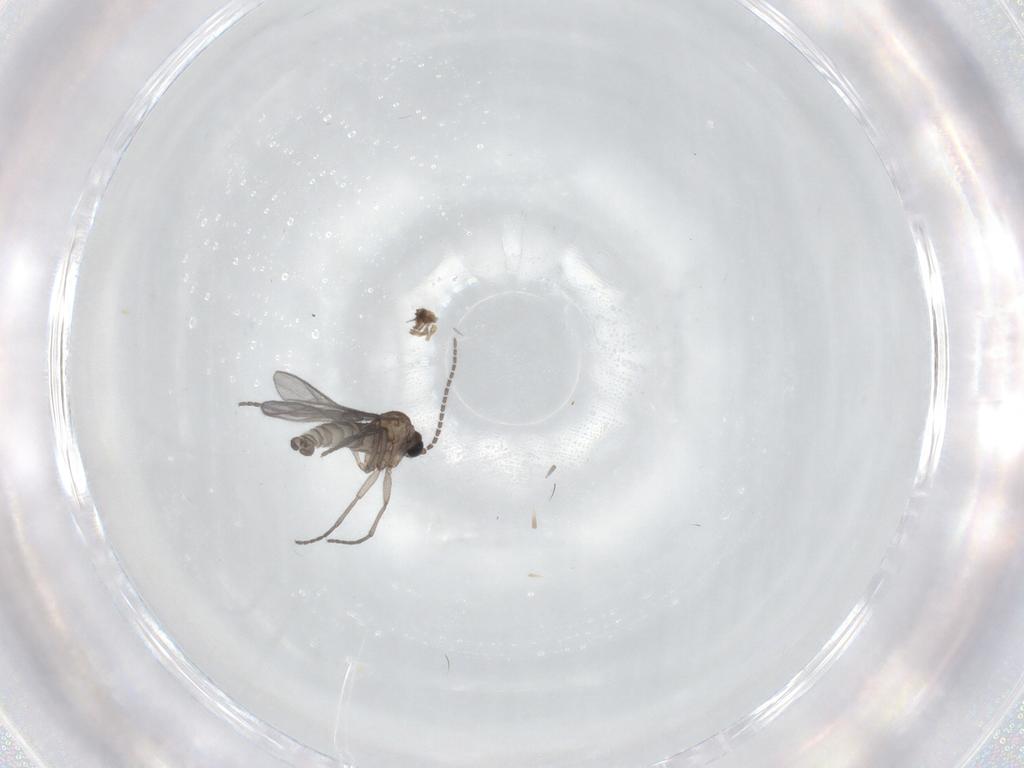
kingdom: Animalia
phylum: Arthropoda
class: Insecta
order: Diptera
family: Sciaridae
